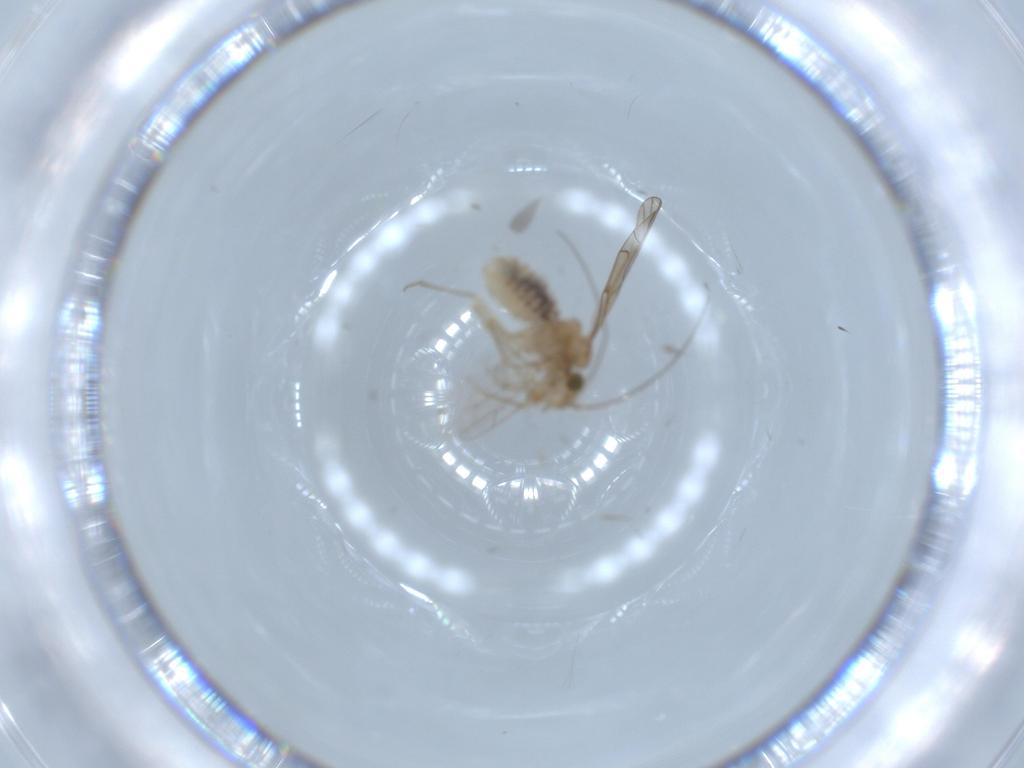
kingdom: Animalia
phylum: Arthropoda
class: Insecta
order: Psocodea
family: Lachesillidae
